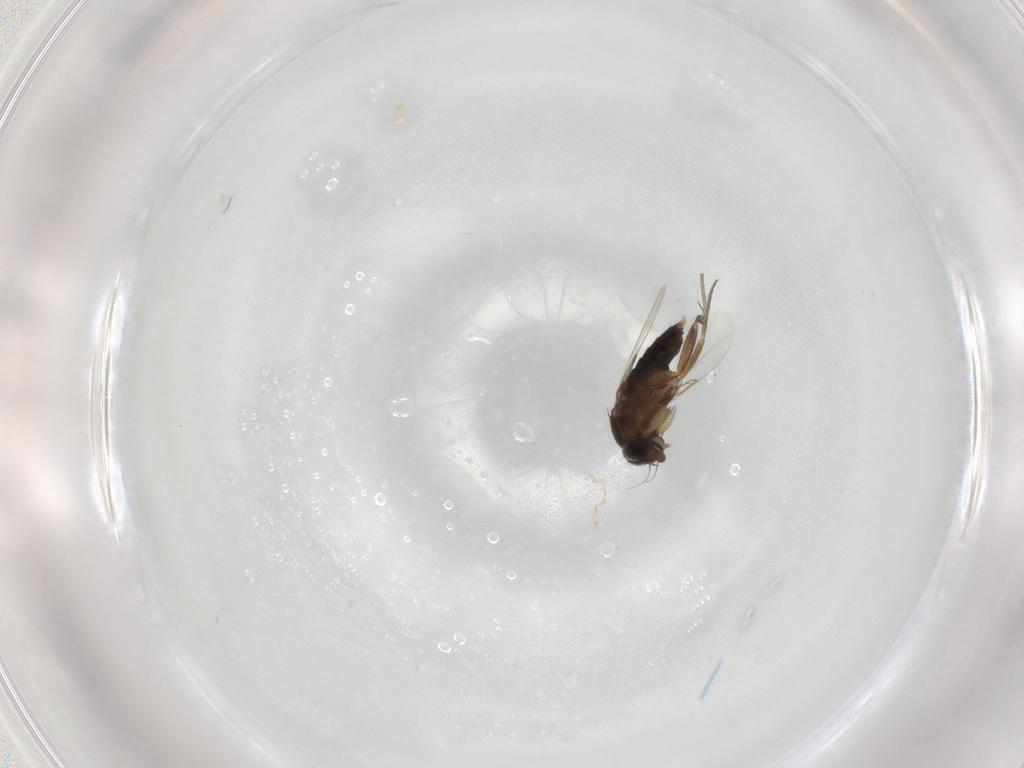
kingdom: Animalia
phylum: Arthropoda
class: Insecta
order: Diptera
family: Phoridae
